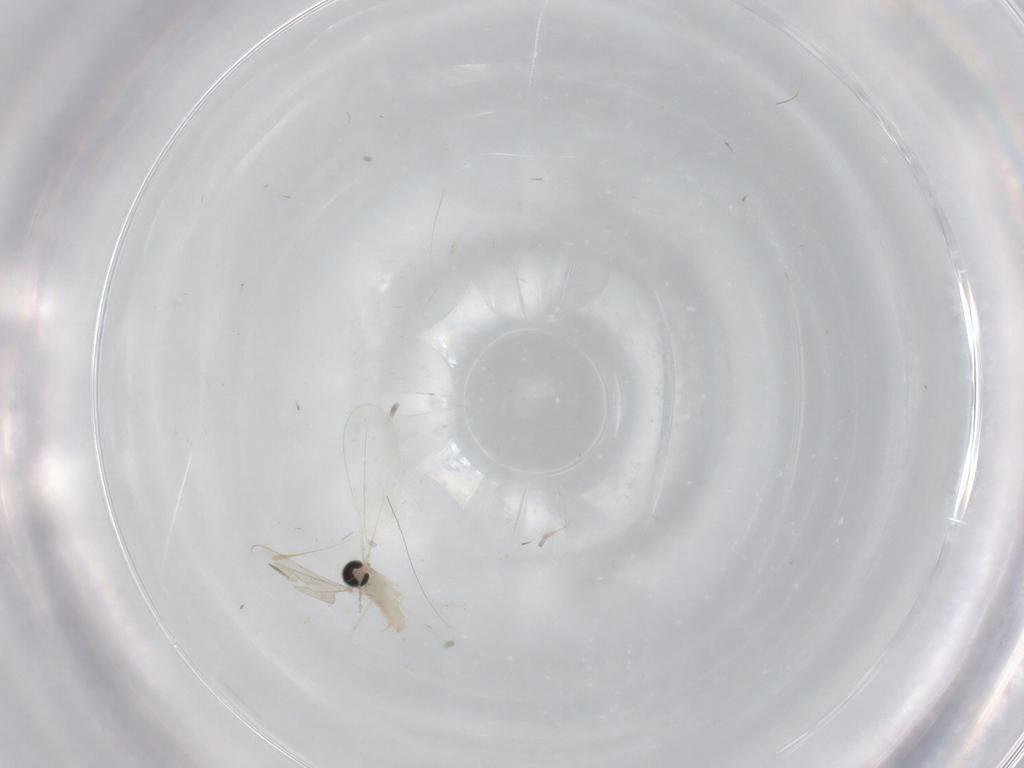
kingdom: Animalia
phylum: Arthropoda
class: Insecta
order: Diptera
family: Cecidomyiidae
